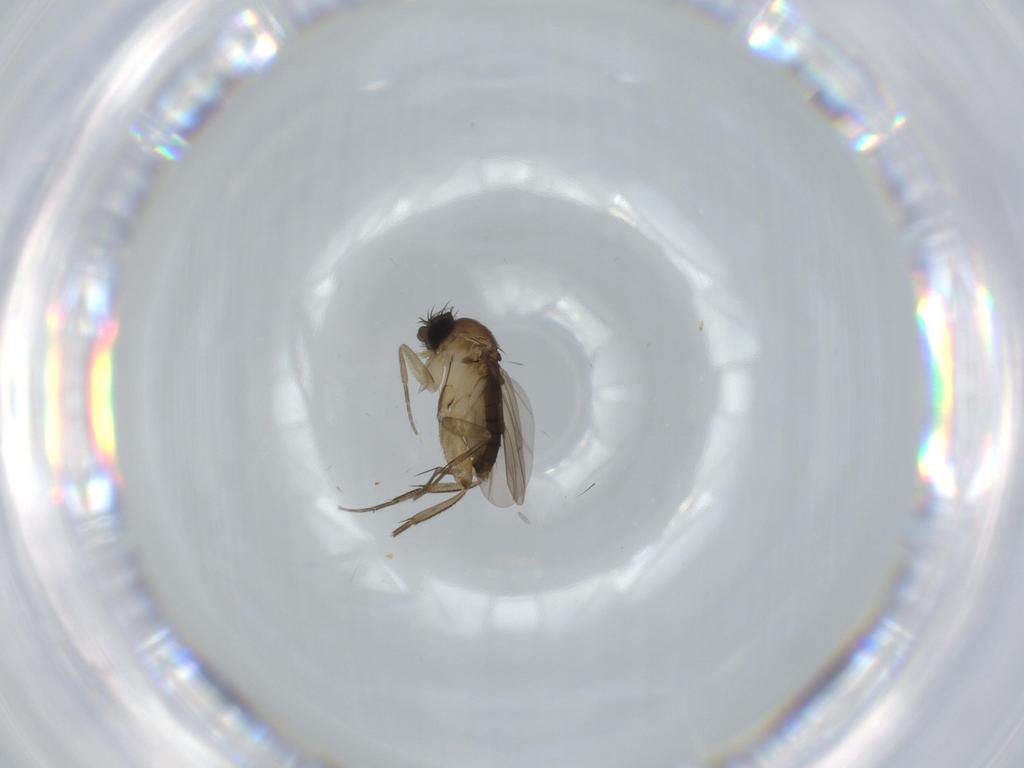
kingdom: Animalia
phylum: Arthropoda
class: Insecta
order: Diptera
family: Phoridae
